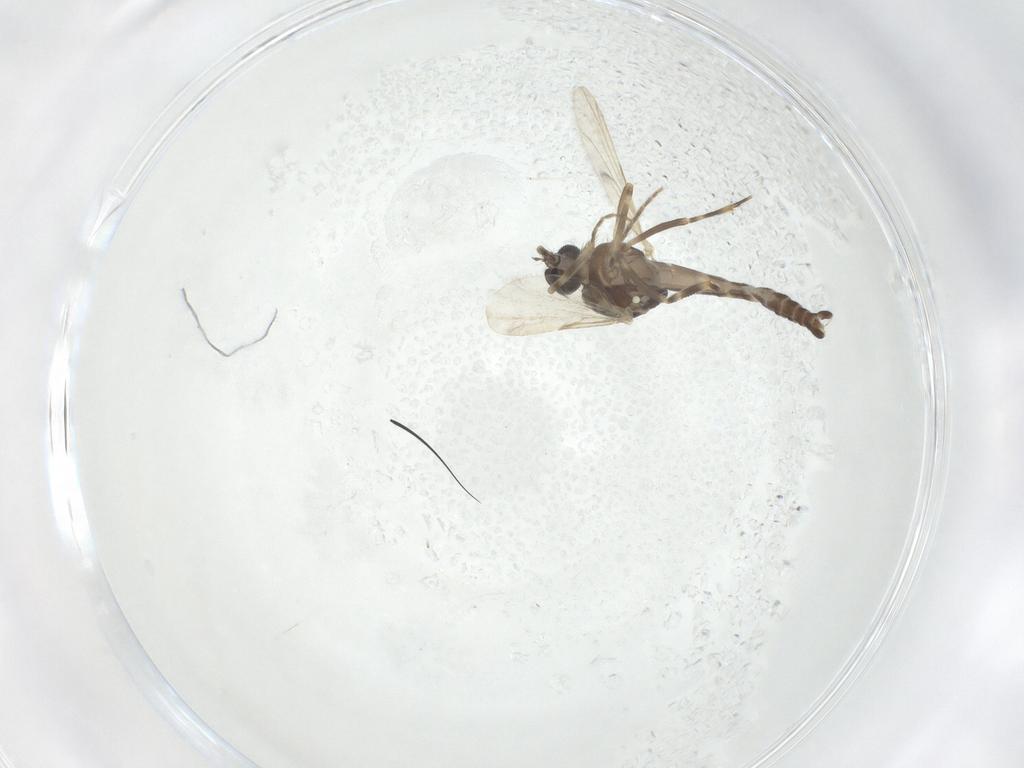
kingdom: Animalia
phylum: Arthropoda
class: Insecta
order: Diptera
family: Ceratopogonidae
